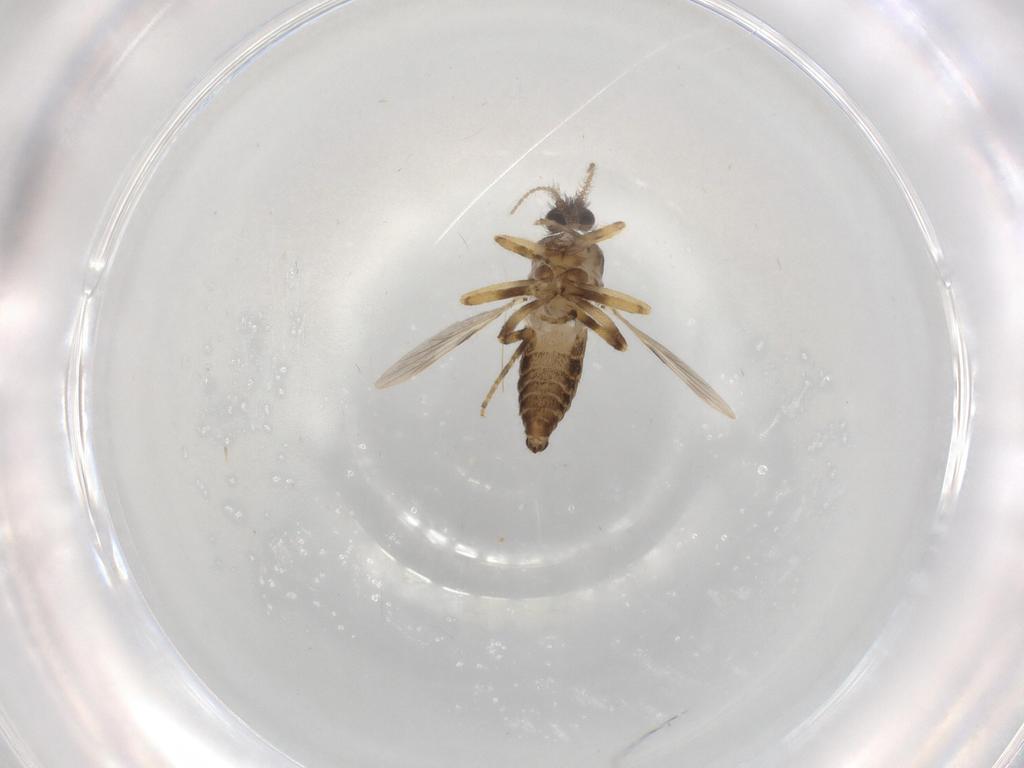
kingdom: Animalia
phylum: Arthropoda
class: Insecta
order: Diptera
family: Ceratopogonidae
